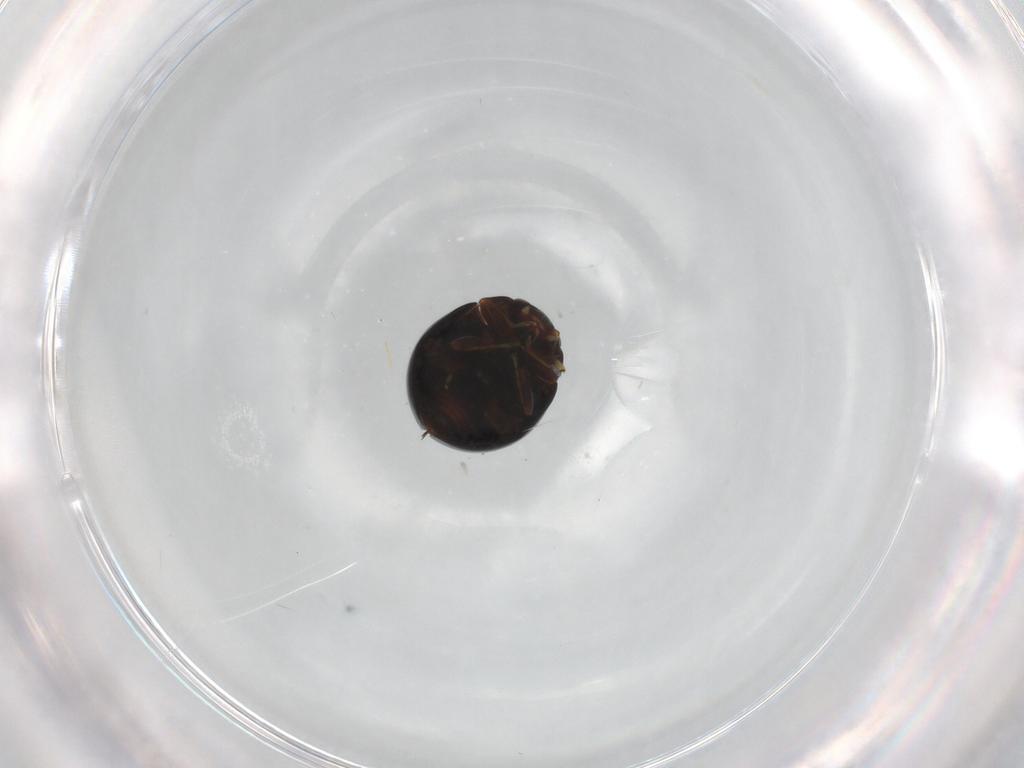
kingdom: Animalia
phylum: Arthropoda
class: Insecta
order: Coleoptera
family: Coccinellidae
